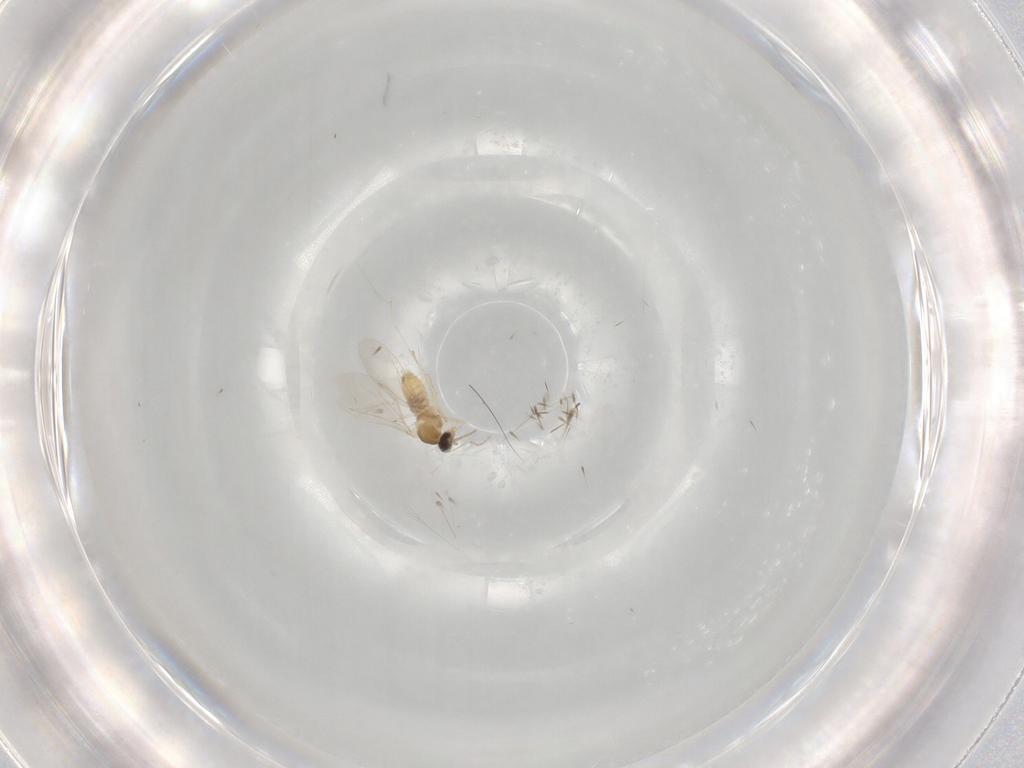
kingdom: Animalia
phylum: Arthropoda
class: Insecta
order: Diptera
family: Cecidomyiidae
